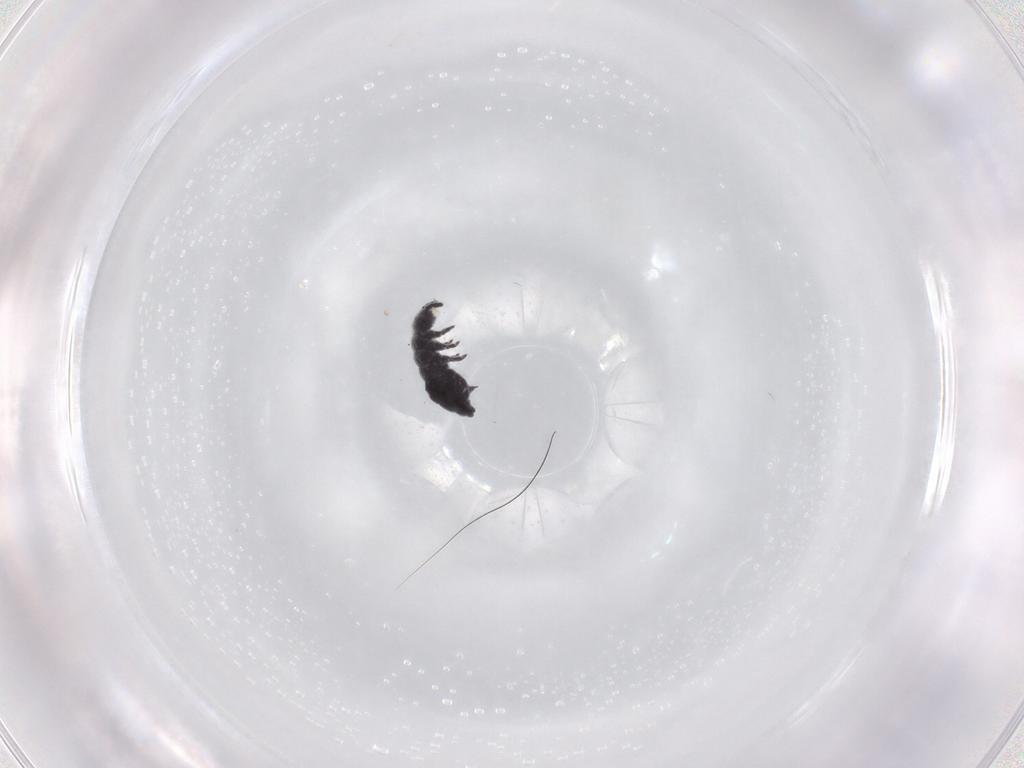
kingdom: Animalia
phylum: Arthropoda
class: Collembola
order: Poduromorpha
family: Hypogastruridae
